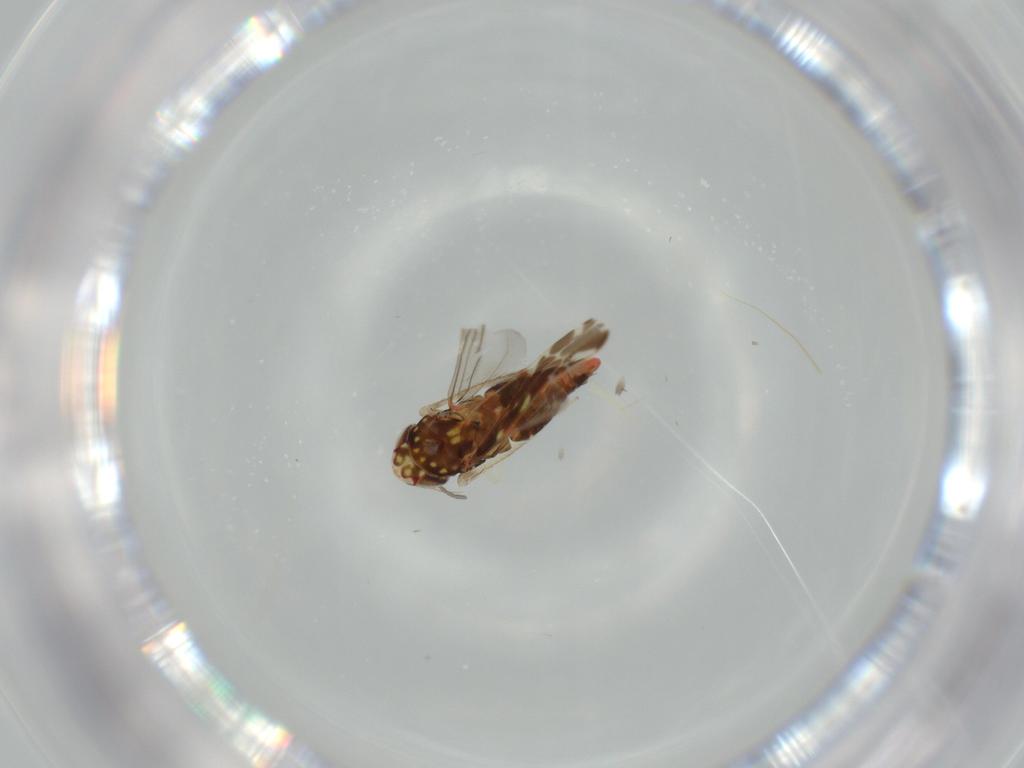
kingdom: Animalia
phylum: Arthropoda
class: Insecta
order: Hemiptera
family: Cicadellidae
